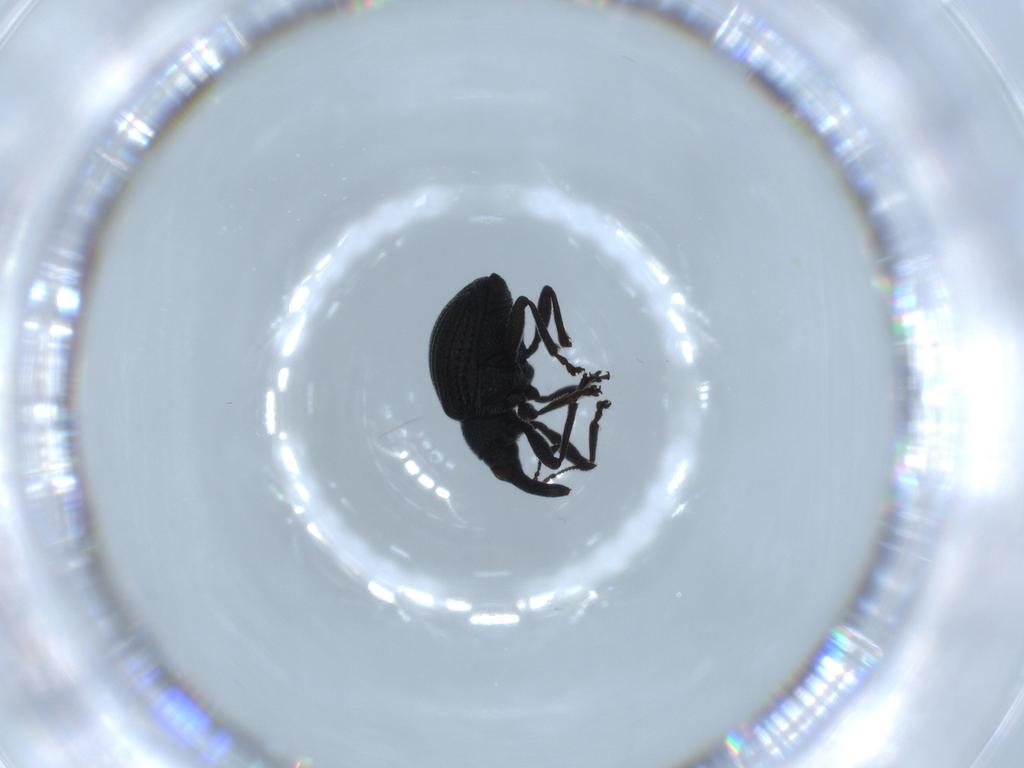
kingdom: Animalia
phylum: Arthropoda
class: Insecta
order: Coleoptera
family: Brentidae
